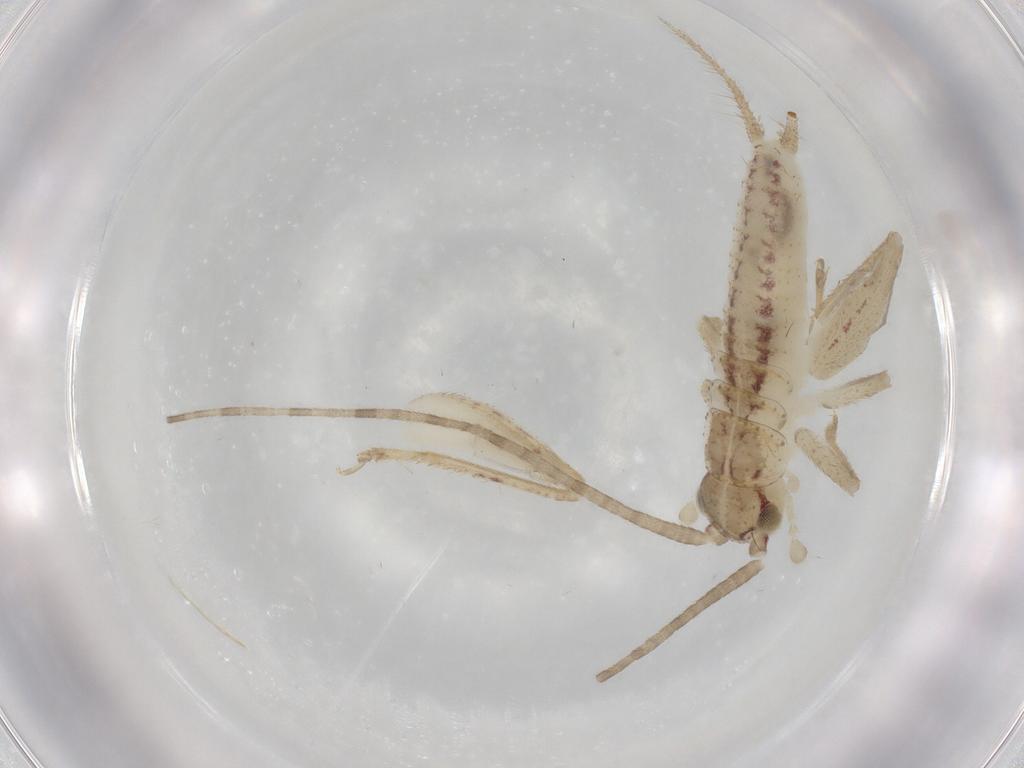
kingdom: Animalia
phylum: Arthropoda
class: Insecta
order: Orthoptera
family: Gryllidae
